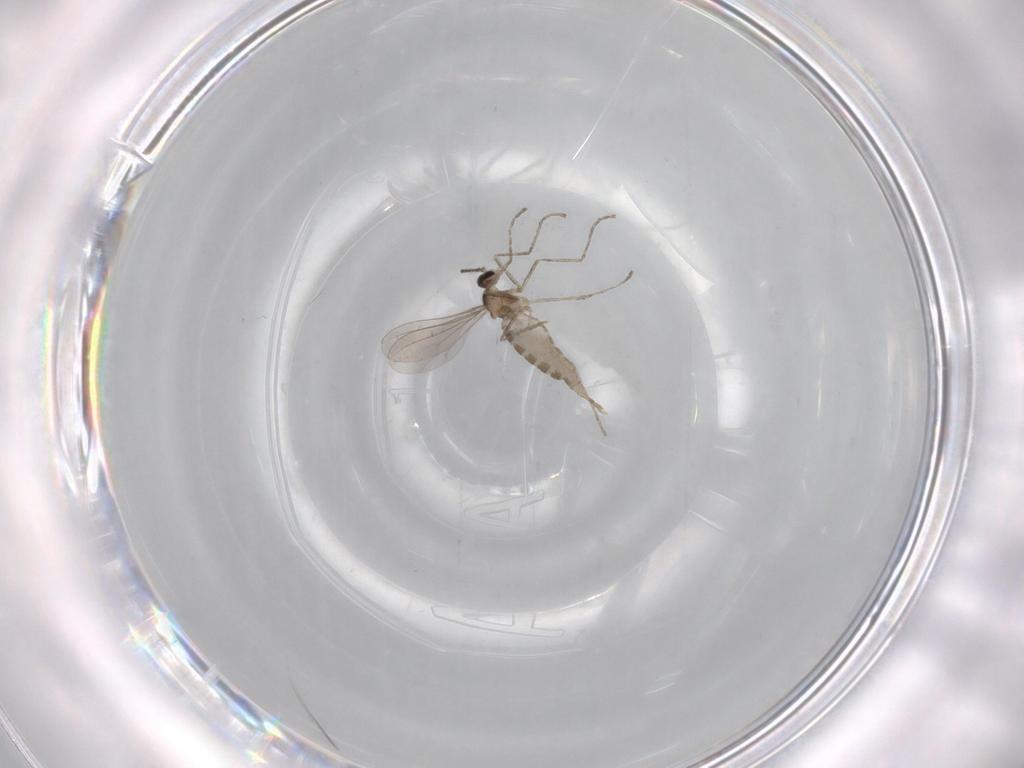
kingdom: Animalia
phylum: Arthropoda
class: Insecta
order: Diptera
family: Chironomidae
